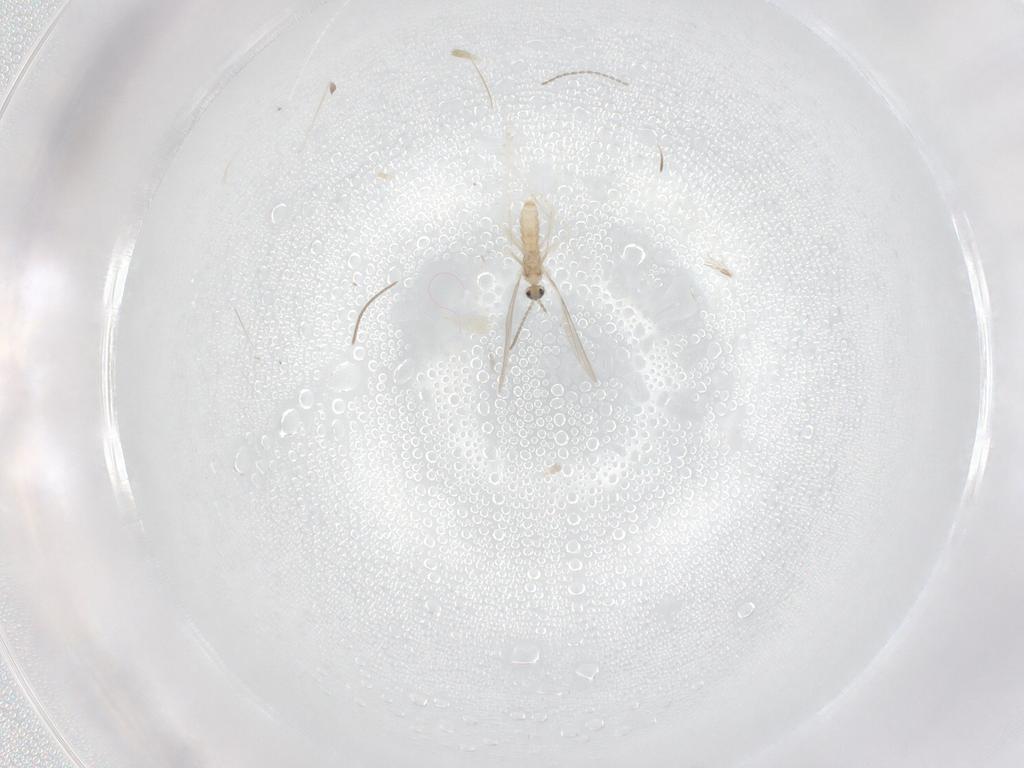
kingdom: Animalia
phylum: Arthropoda
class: Insecta
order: Diptera
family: Cecidomyiidae
